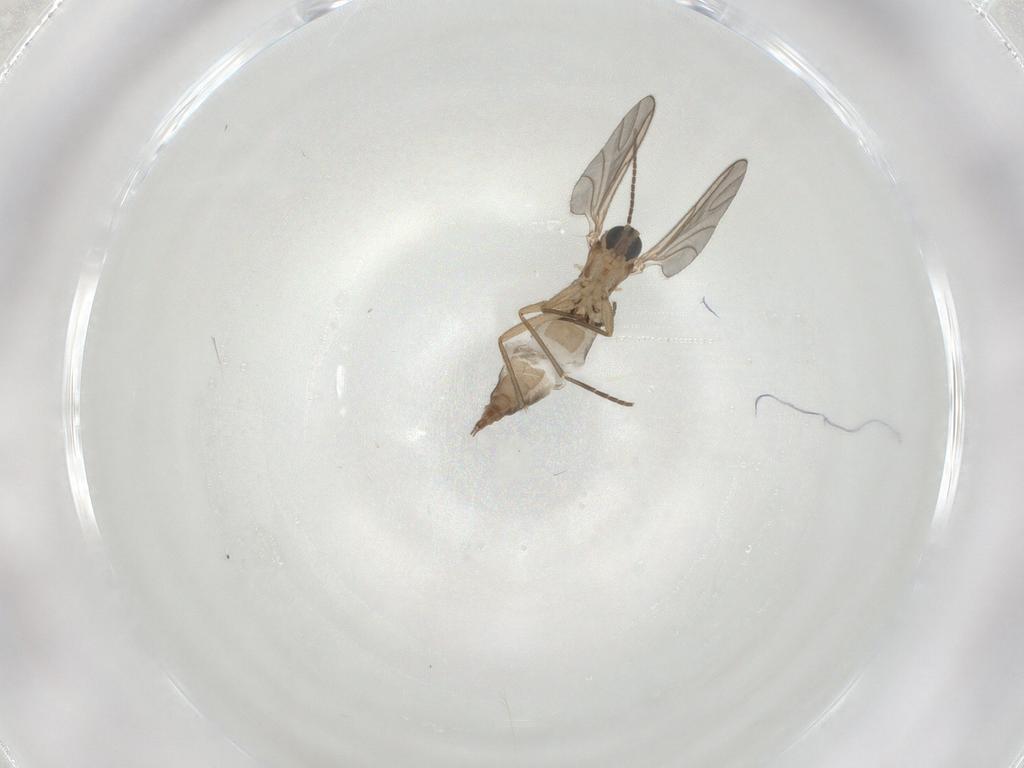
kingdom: Animalia
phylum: Arthropoda
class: Insecta
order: Diptera
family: Sciaridae
